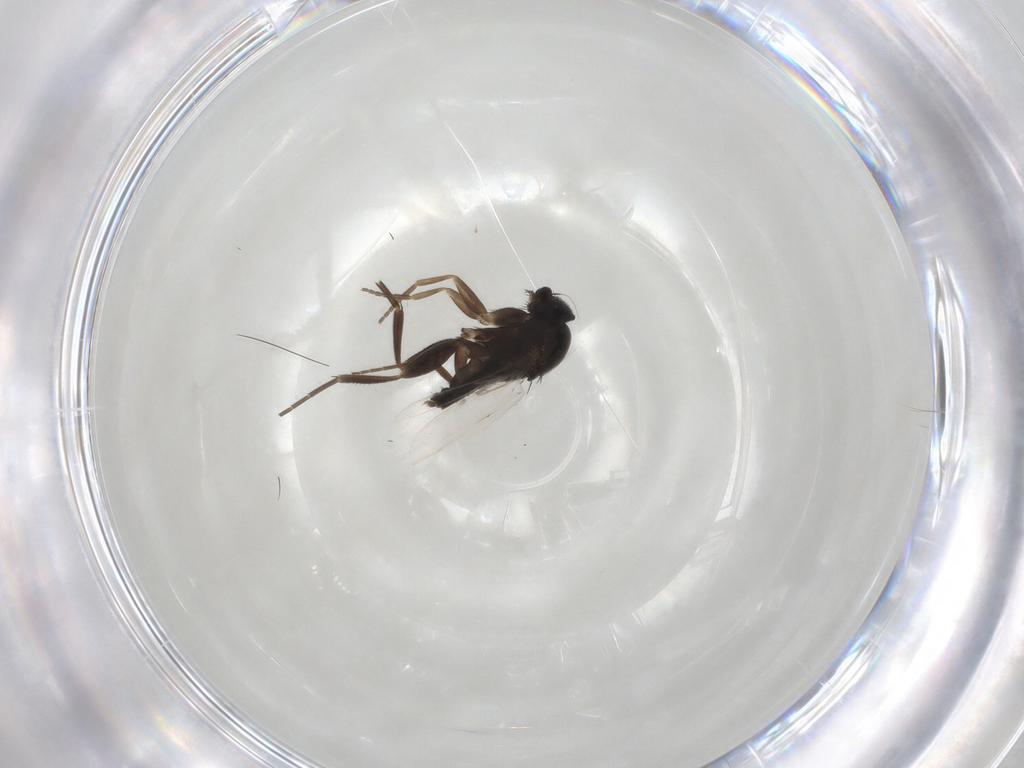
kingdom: Animalia
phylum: Arthropoda
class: Insecta
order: Diptera
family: Phoridae
